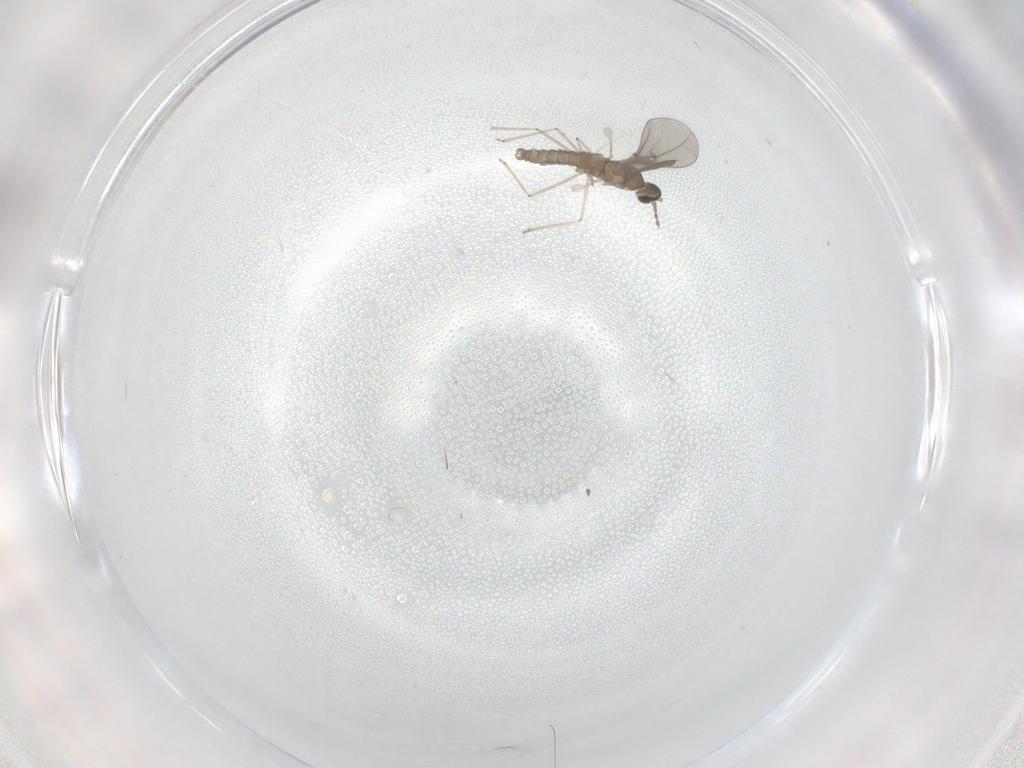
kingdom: Animalia
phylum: Arthropoda
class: Insecta
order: Diptera
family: Cecidomyiidae
